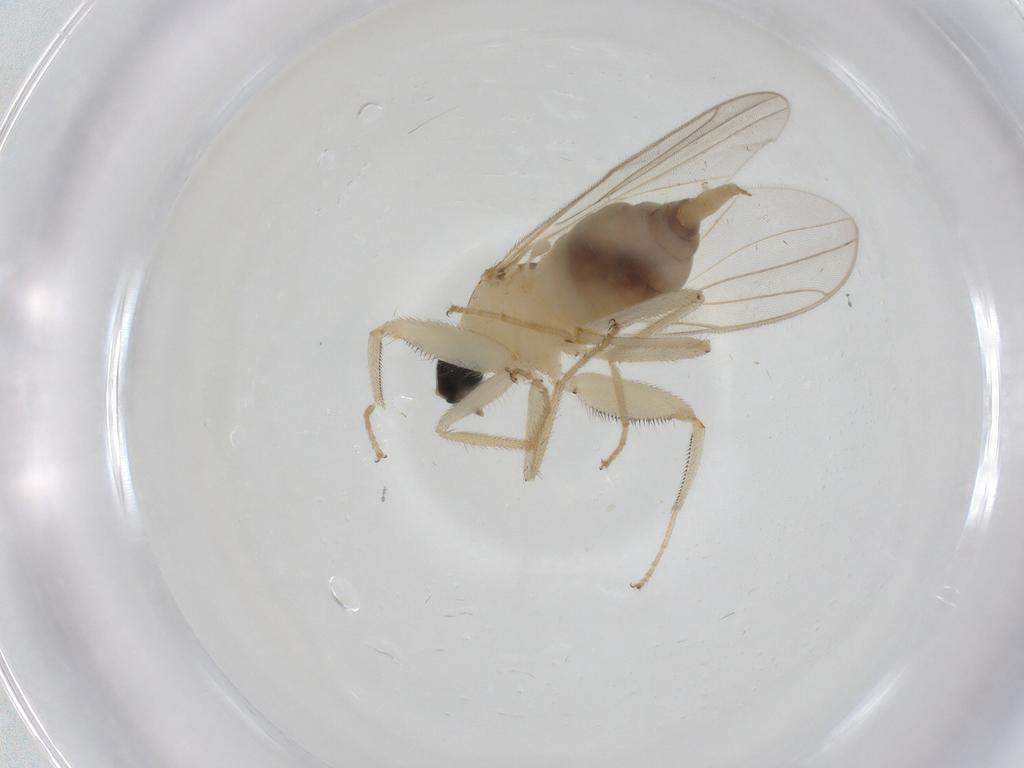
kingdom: Animalia
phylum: Arthropoda
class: Insecta
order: Diptera
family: Hybotidae
